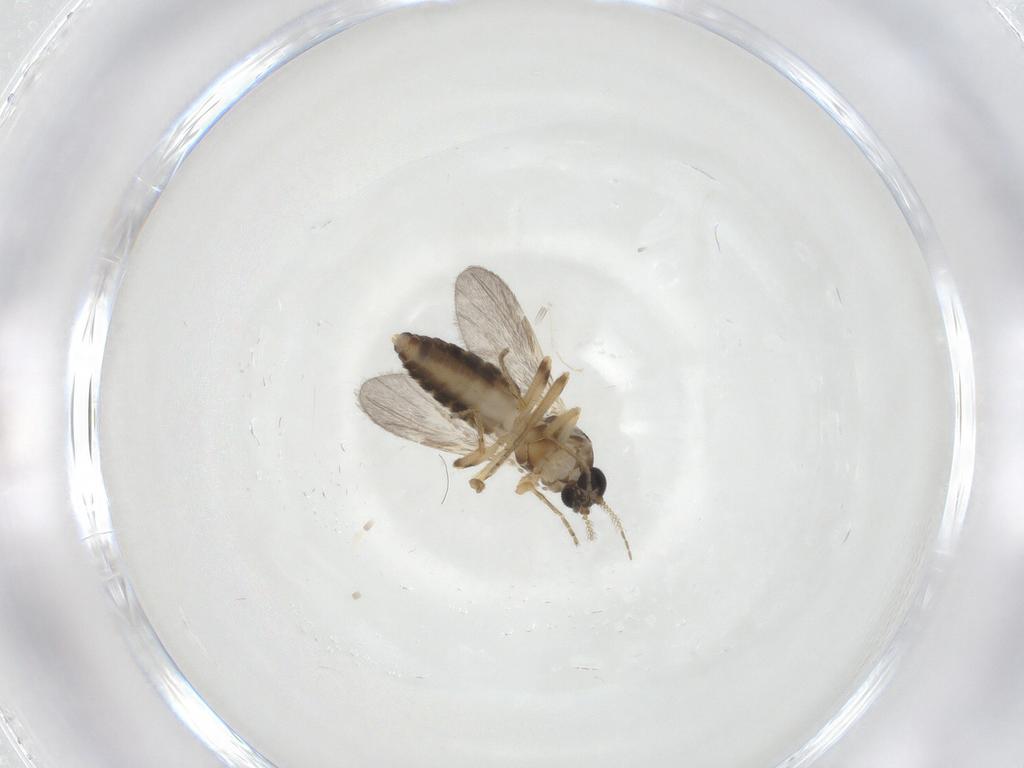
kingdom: Animalia
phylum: Arthropoda
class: Insecta
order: Diptera
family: Ceratopogonidae
